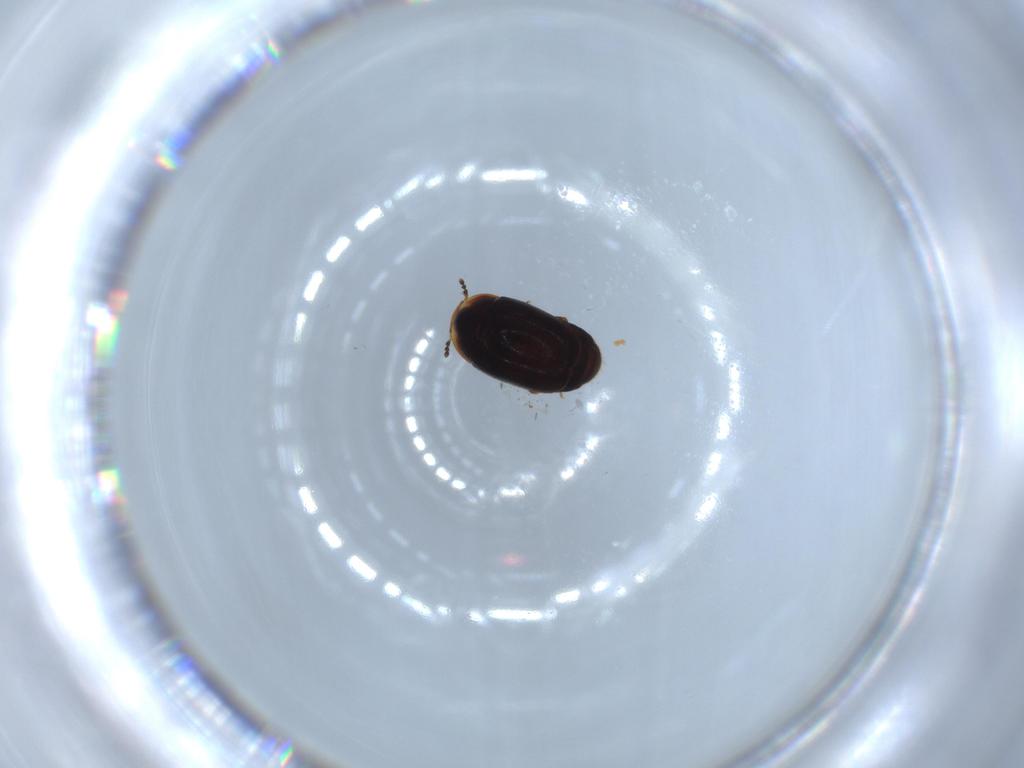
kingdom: Animalia
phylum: Arthropoda
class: Insecta
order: Coleoptera
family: Corylophidae
